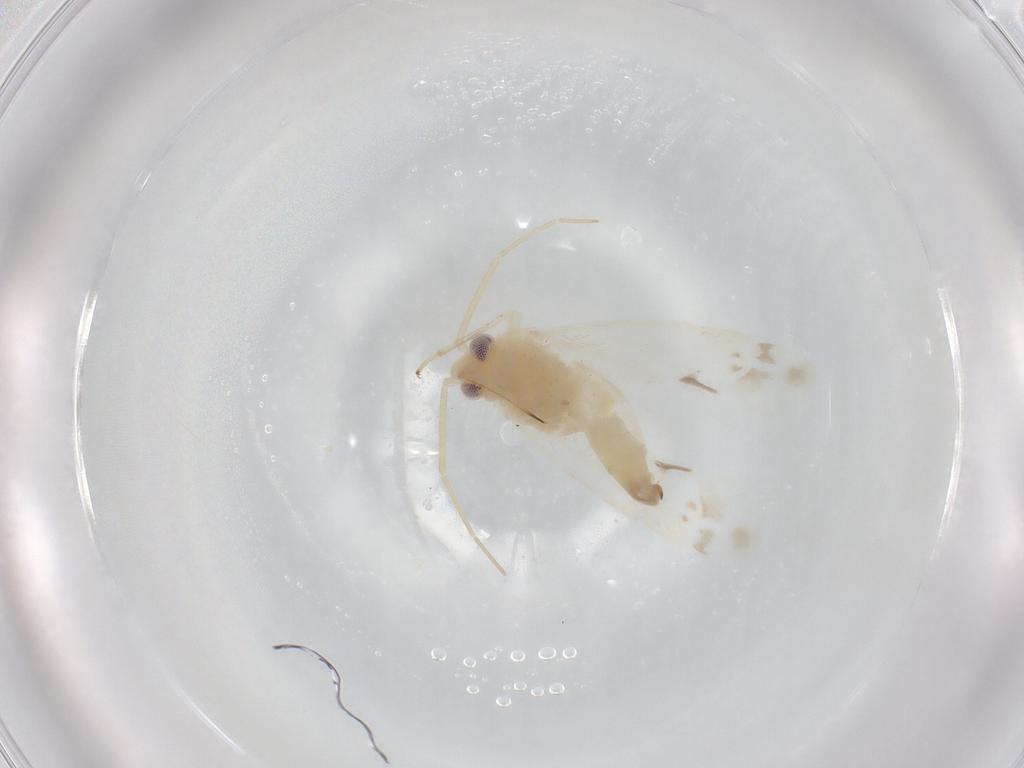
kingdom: Animalia
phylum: Arthropoda
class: Insecta
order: Hemiptera
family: Miridae
